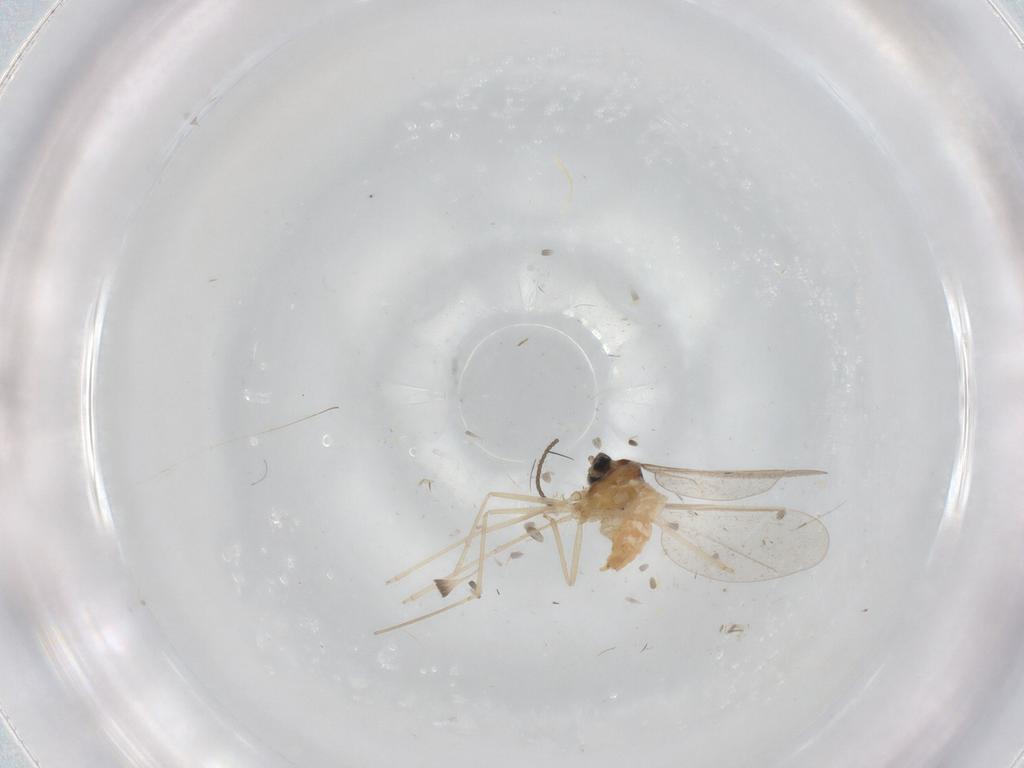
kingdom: Animalia
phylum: Arthropoda
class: Insecta
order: Diptera
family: Cecidomyiidae
